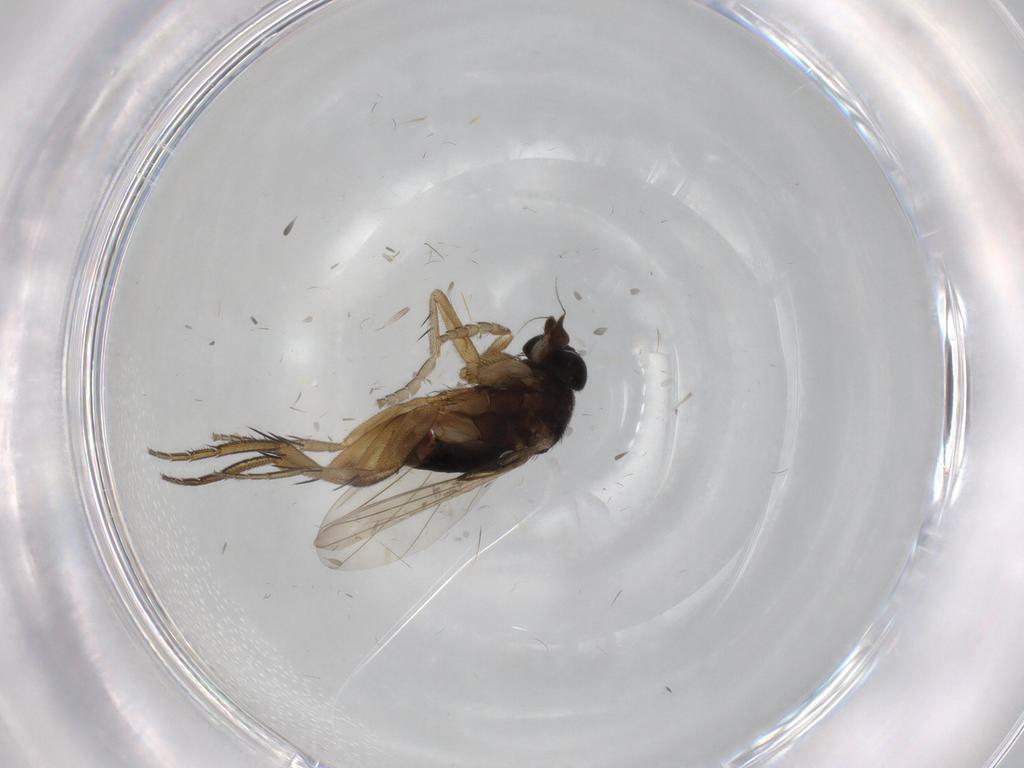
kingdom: Animalia
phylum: Arthropoda
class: Insecta
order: Diptera
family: Phoridae
